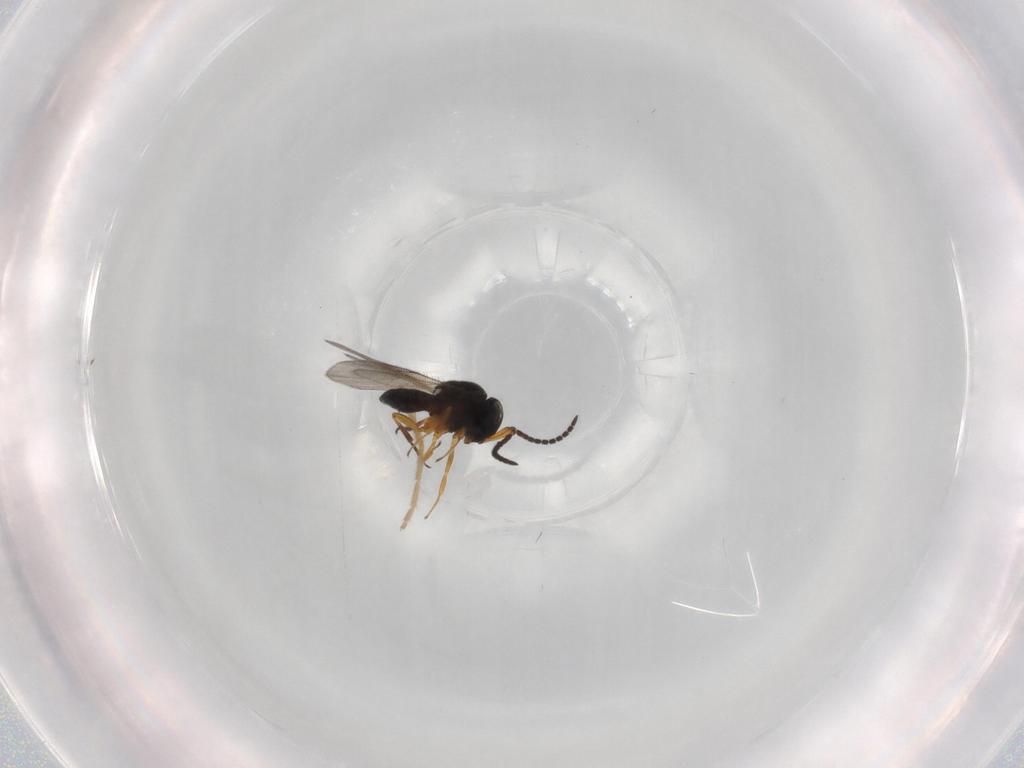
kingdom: Animalia
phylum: Arthropoda
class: Insecta
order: Hymenoptera
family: Scelionidae
